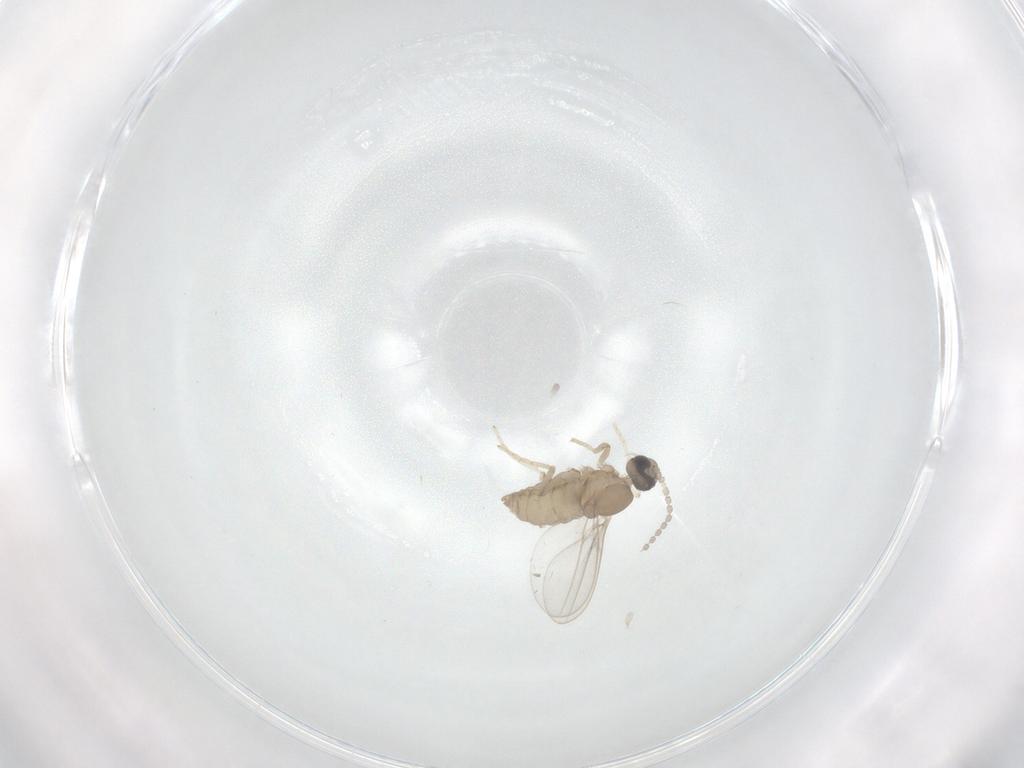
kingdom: Animalia
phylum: Arthropoda
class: Insecta
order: Diptera
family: Cecidomyiidae
